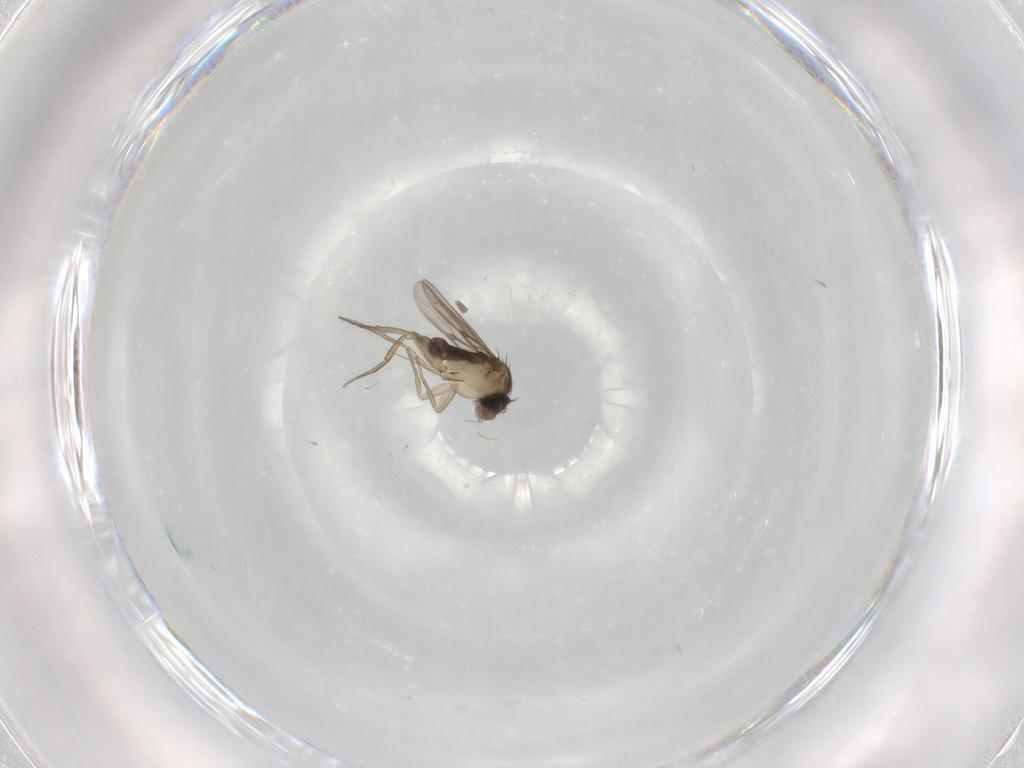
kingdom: Animalia
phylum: Arthropoda
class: Insecta
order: Diptera
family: Phoridae
